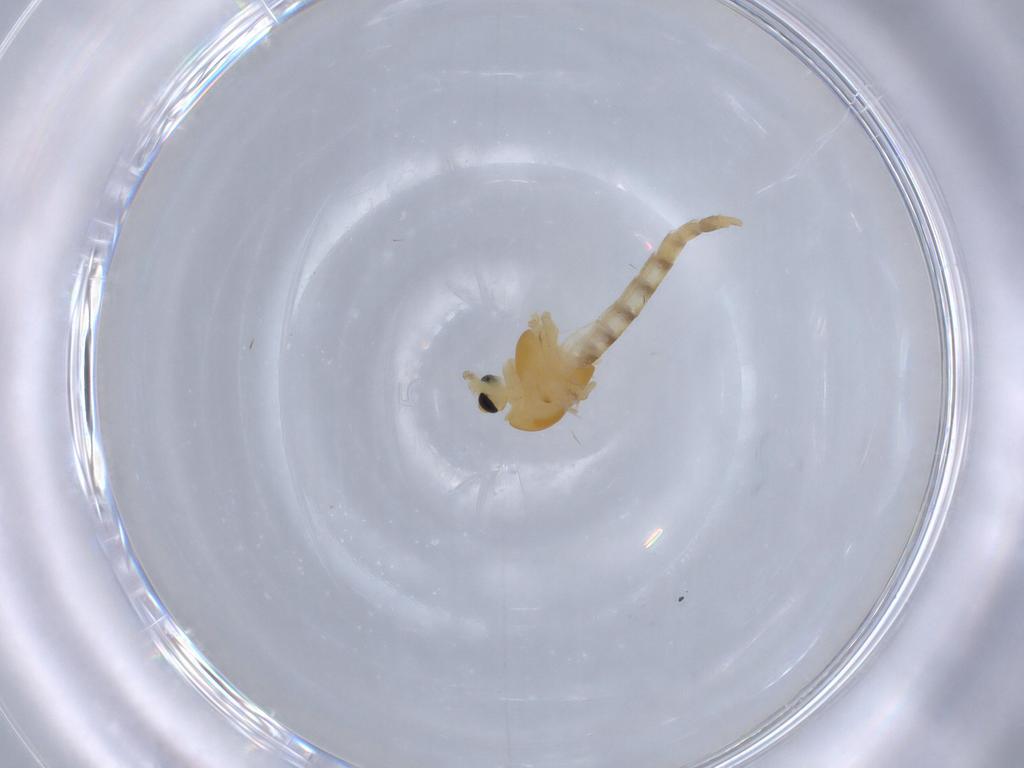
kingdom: Animalia
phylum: Arthropoda
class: Insecta
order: Diptera
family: Chironomidae
